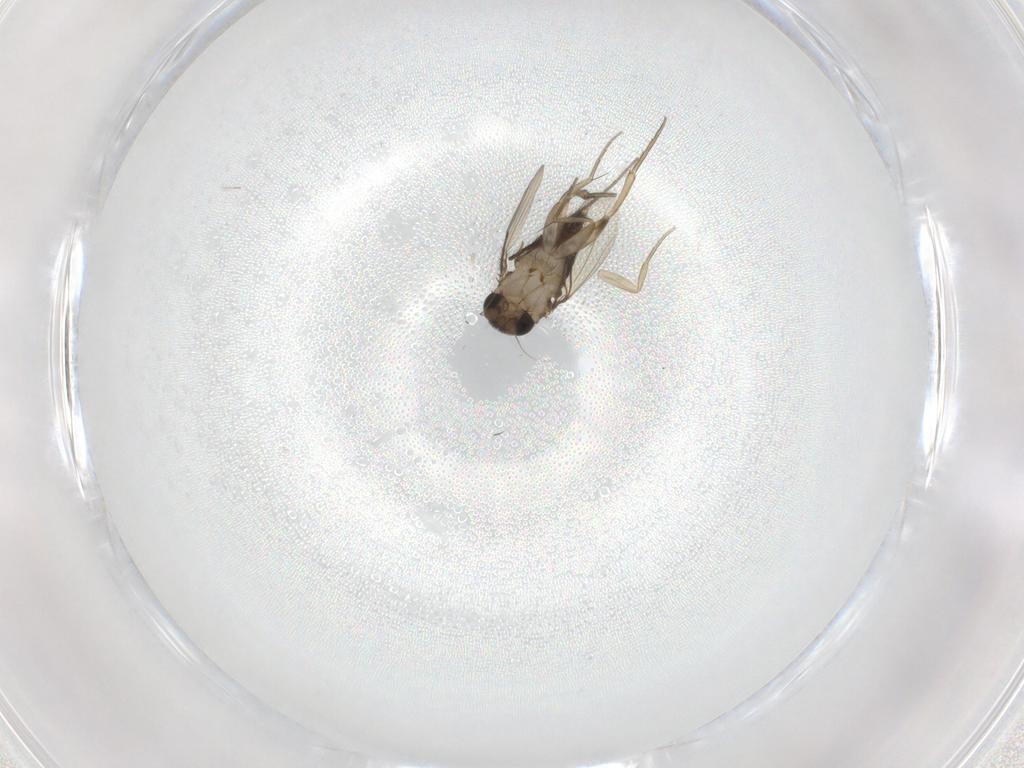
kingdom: Animalia
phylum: Arthropoda
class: Insecta
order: Diptera
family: Phoridae
